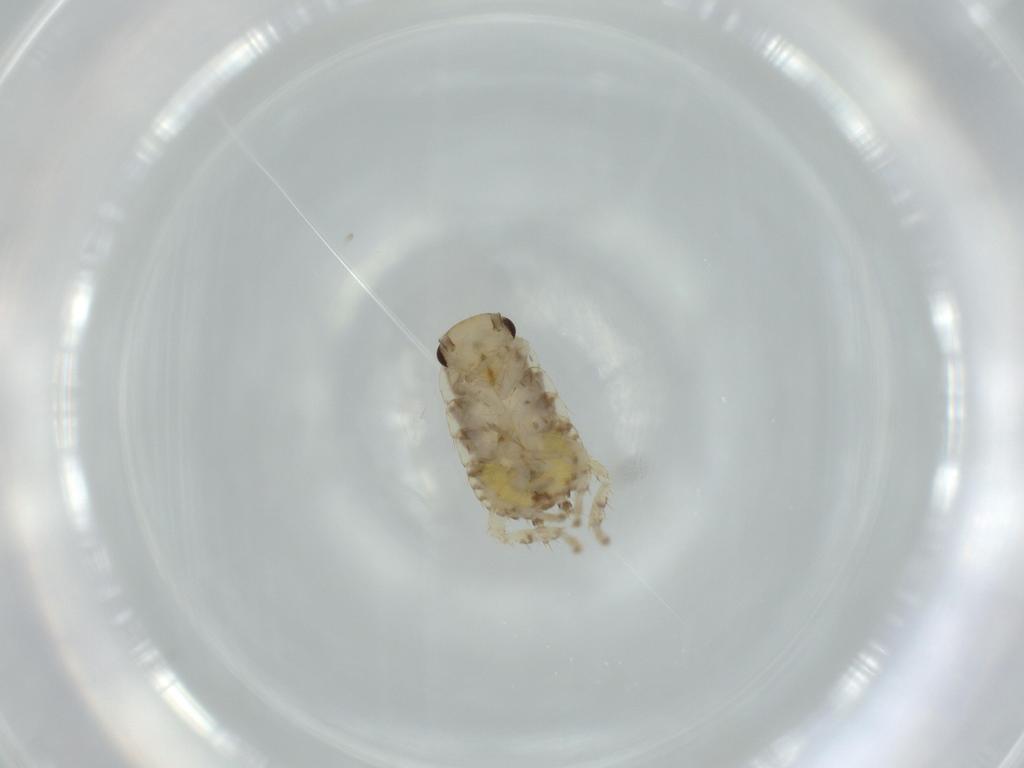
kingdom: Animalia
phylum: Arthropoda
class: Insecta
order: Blattodea
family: Ectobiidae
